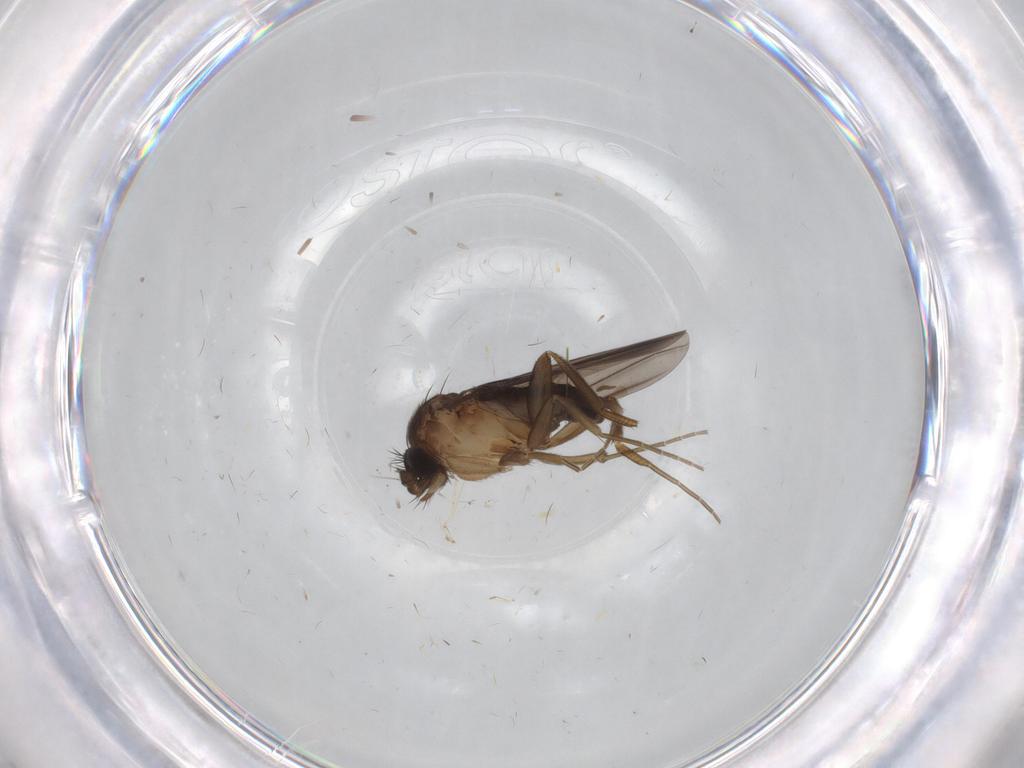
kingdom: Animalia
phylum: Arthropoda
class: Insecta
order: Diptera
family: Cecidomyiidae
